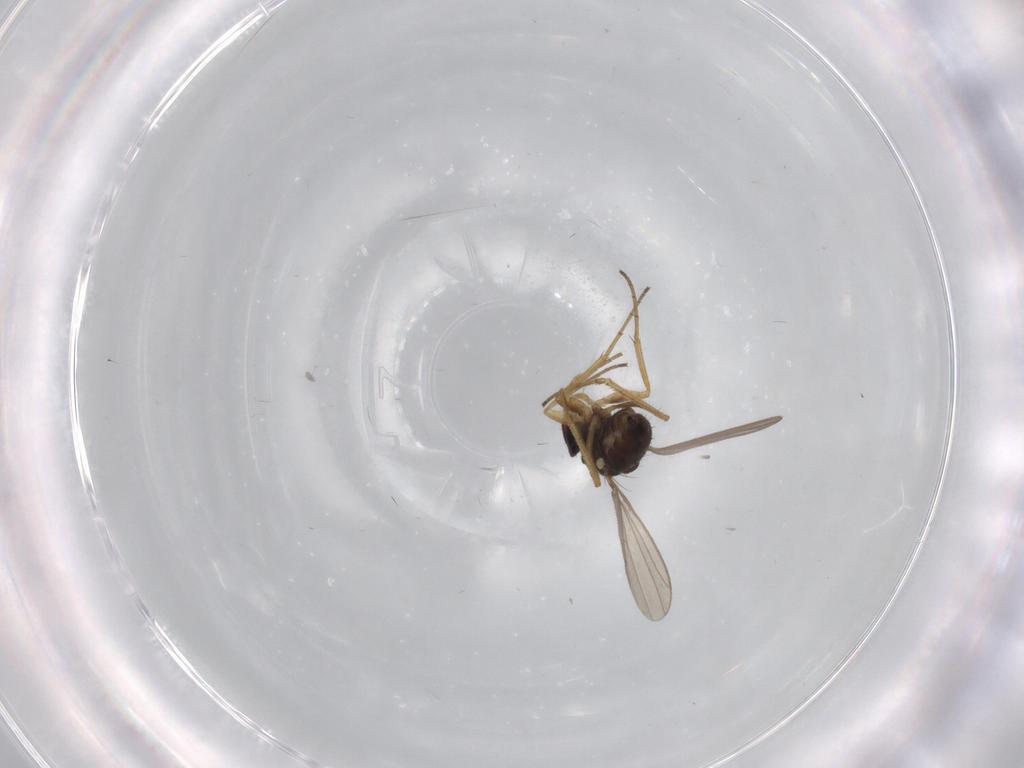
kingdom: Animalia
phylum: Arthropoda
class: Insecta
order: Diptera
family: Dolichopodidae
